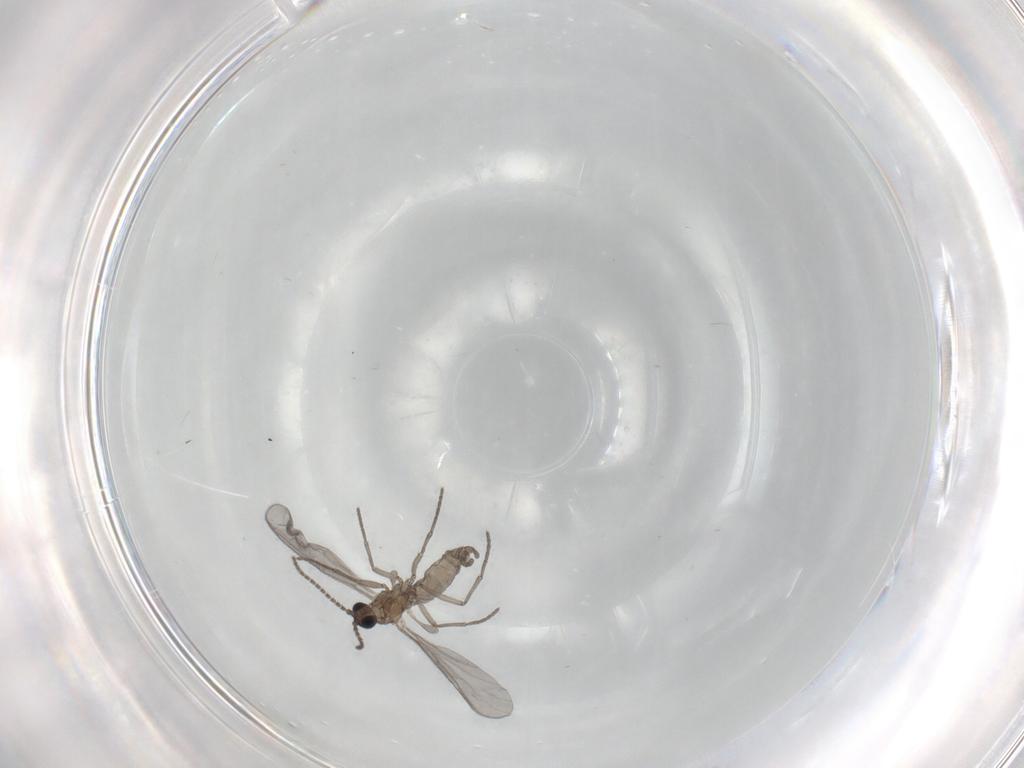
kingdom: Animalia
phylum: Arthropoda
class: Insecta
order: Diptera
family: Sciaridae
